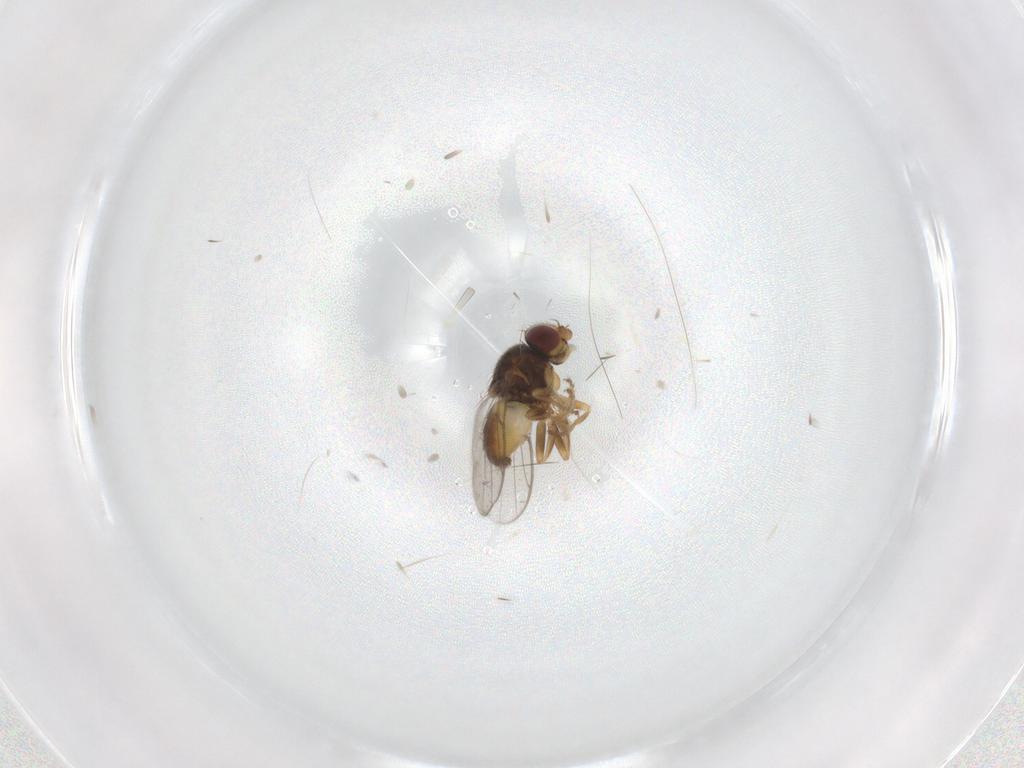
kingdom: Animalia
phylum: Arthropoda
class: Insecta
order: Diptera
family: Chloropidae
